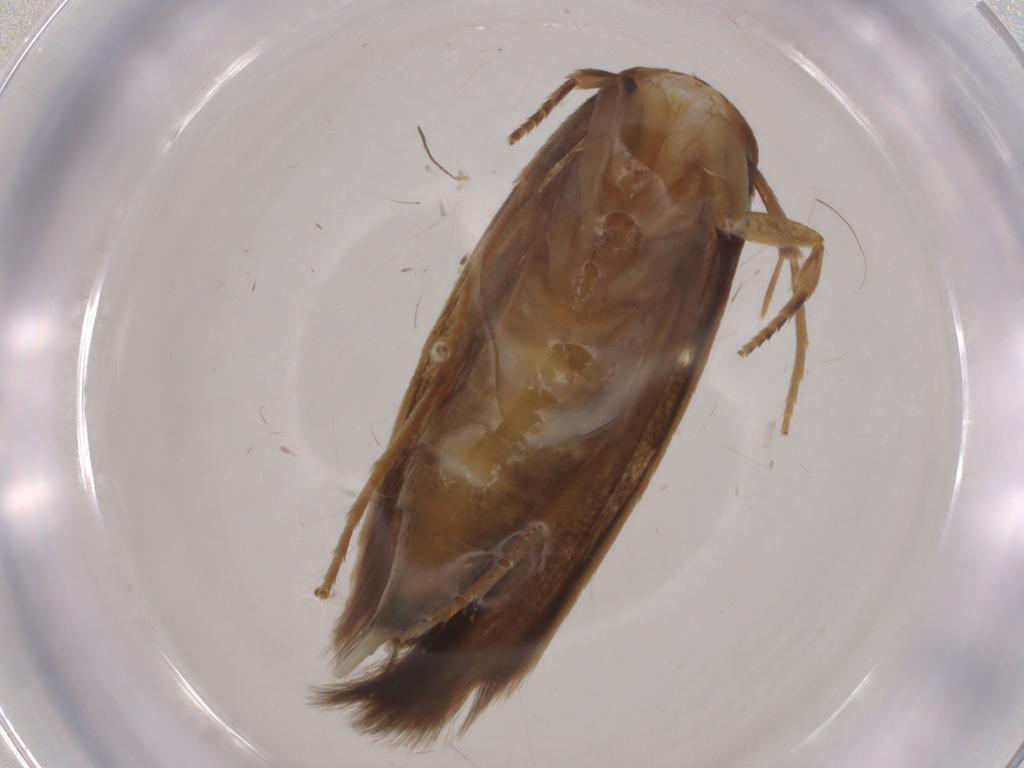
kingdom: Animalia
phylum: Arthropoda
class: Insecta
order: Lepidoptera
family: Tineidae
